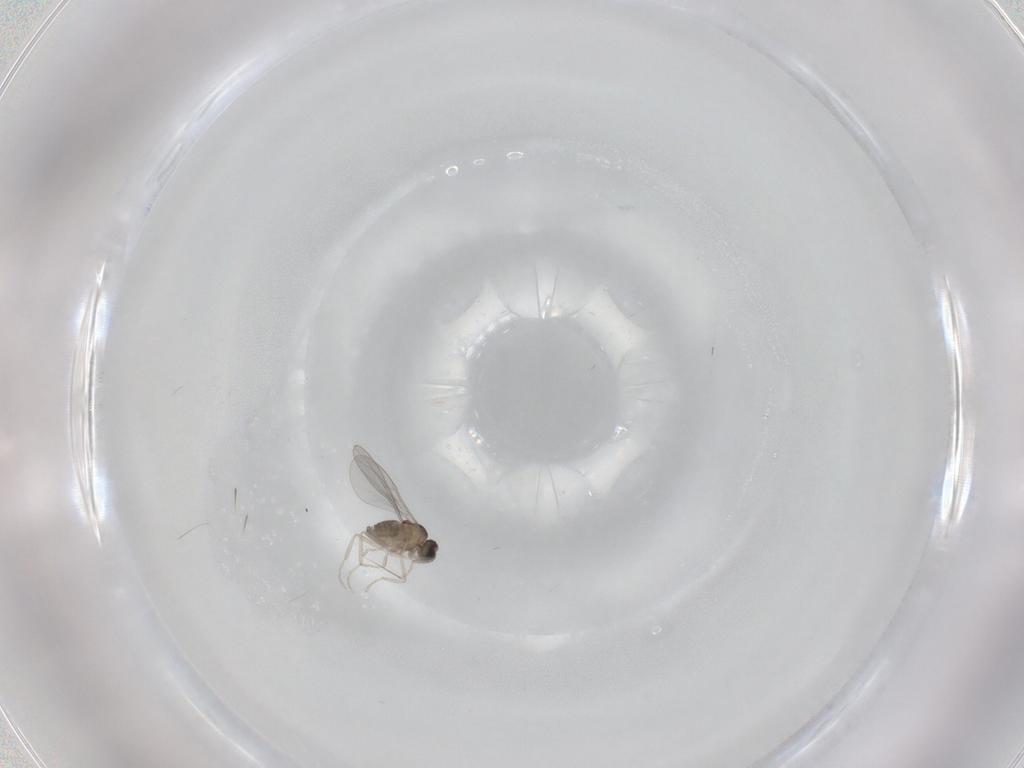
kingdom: Animalia
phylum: Arthropoda
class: Insecta
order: Diptera
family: Cecidomyiidae
